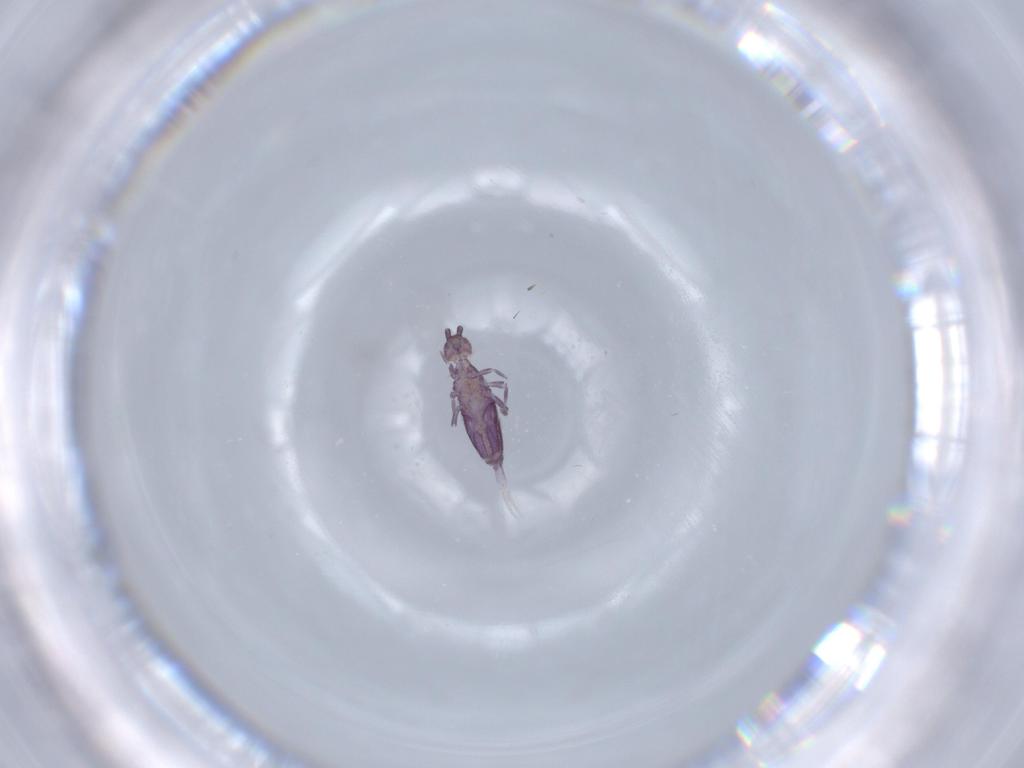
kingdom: Animalia
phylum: Arthropoda
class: Collembola
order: Entomobryomorpha
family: Entomobryidae
